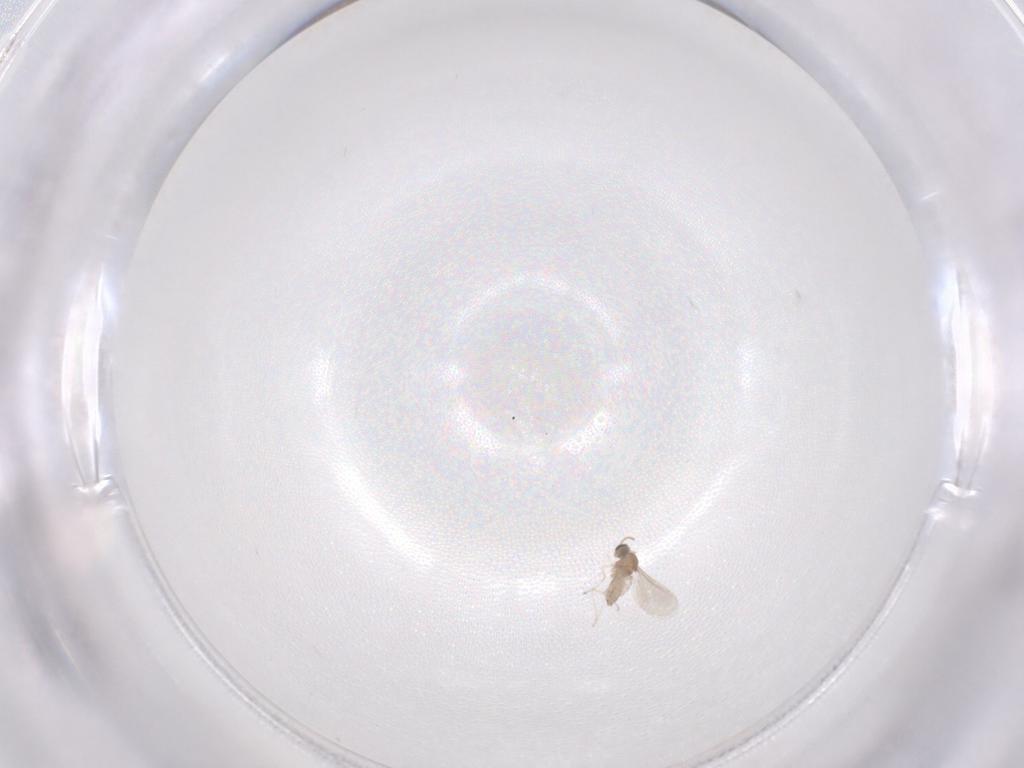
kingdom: Animalia
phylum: Arthropoda
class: Insecta
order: Diptera
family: Cecidomyiidae
